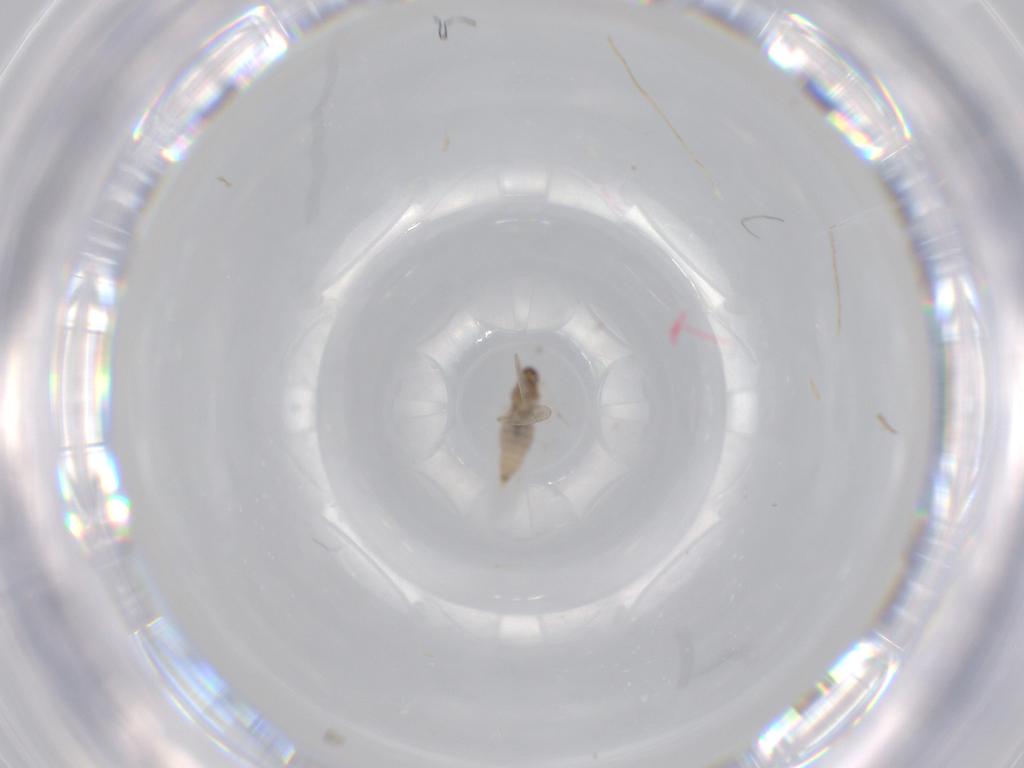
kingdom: Animalia
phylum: Arthropoda
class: Insecta
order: Diptera
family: Cecidomyiidae
